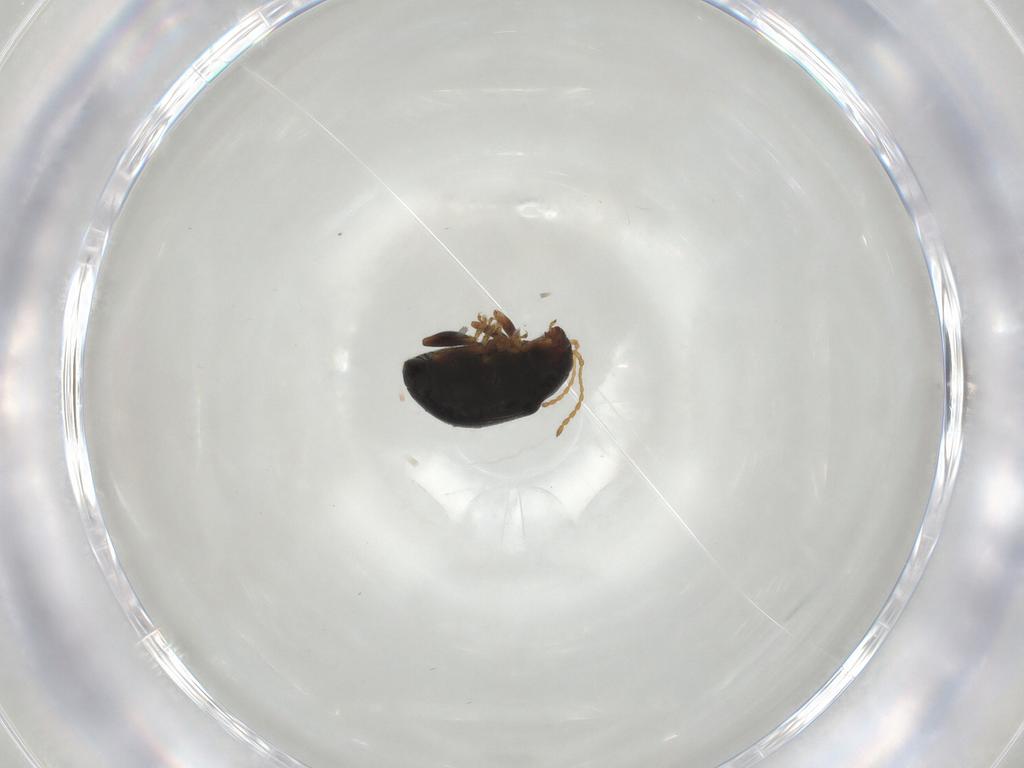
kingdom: Animalia
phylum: Arthropoda
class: Insecta
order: Coleoptera
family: Chrysomelidae
